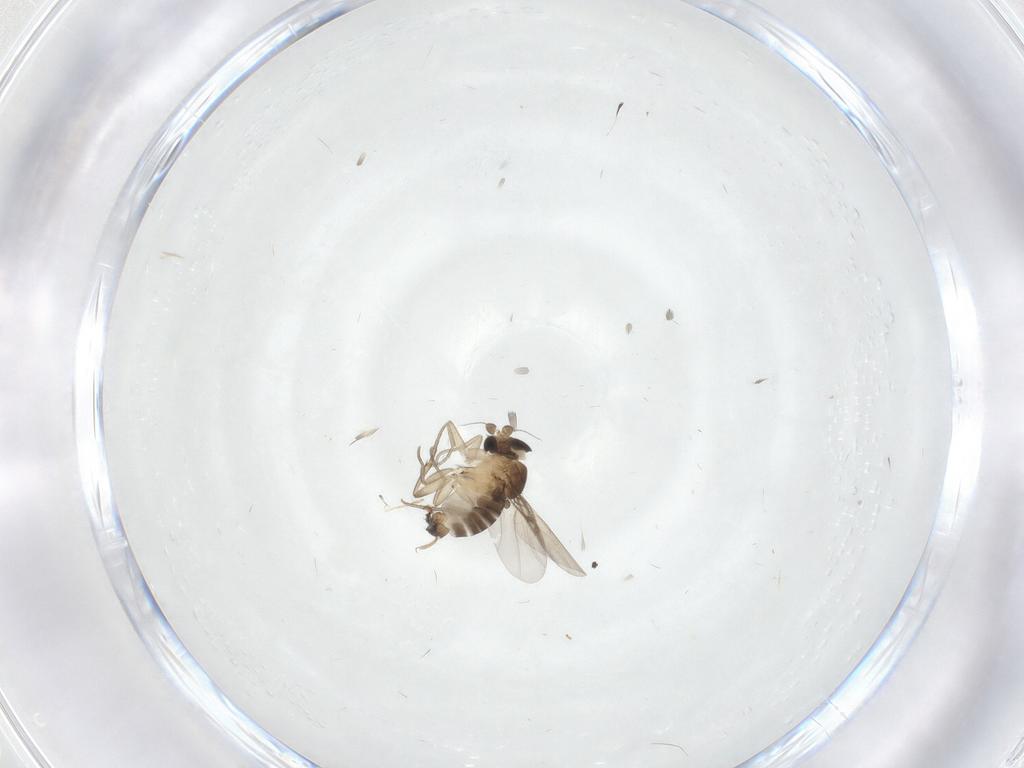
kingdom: Animalia
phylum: Arthropoda
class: Insecta
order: Diptera
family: Phoridae
